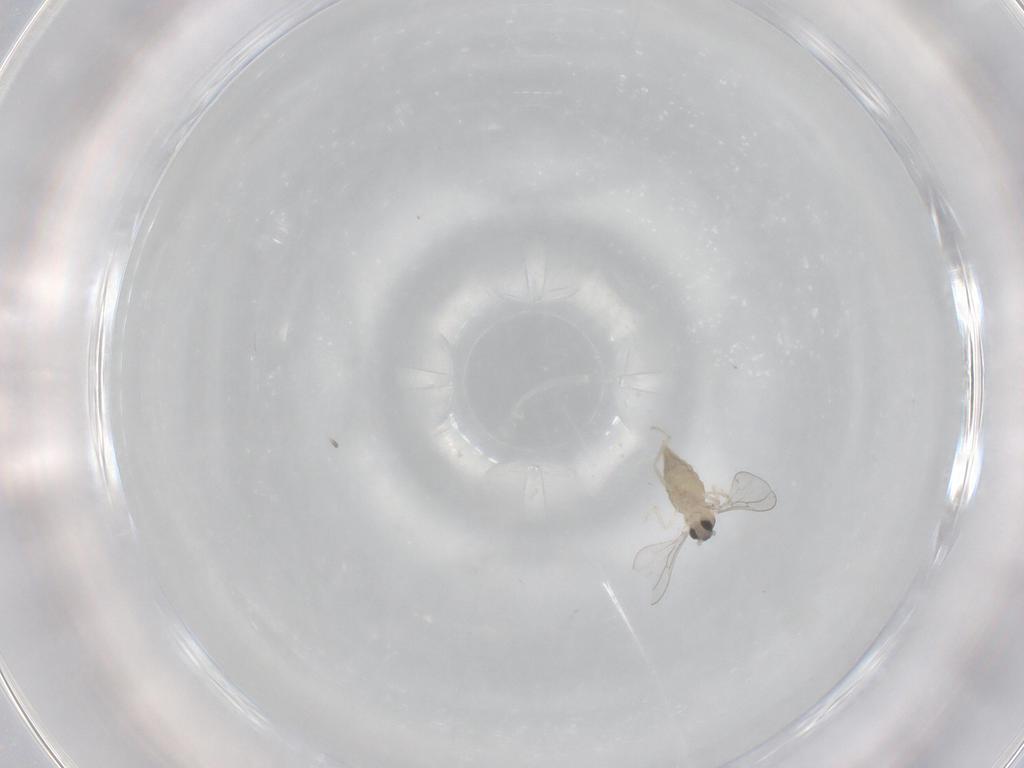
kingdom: Animalia
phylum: Arthropoda
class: Insecta
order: Diptera
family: Cecidomyiidae
